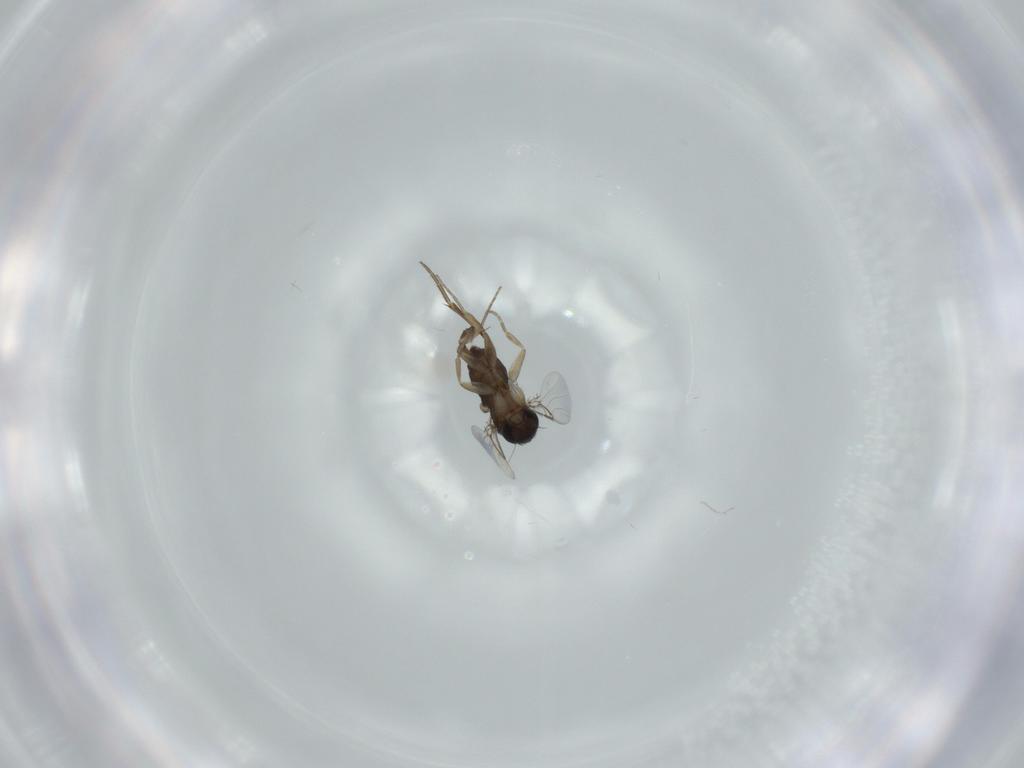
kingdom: Animalia
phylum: Arthropoda
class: Insecta
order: Diptera
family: Phoridae
